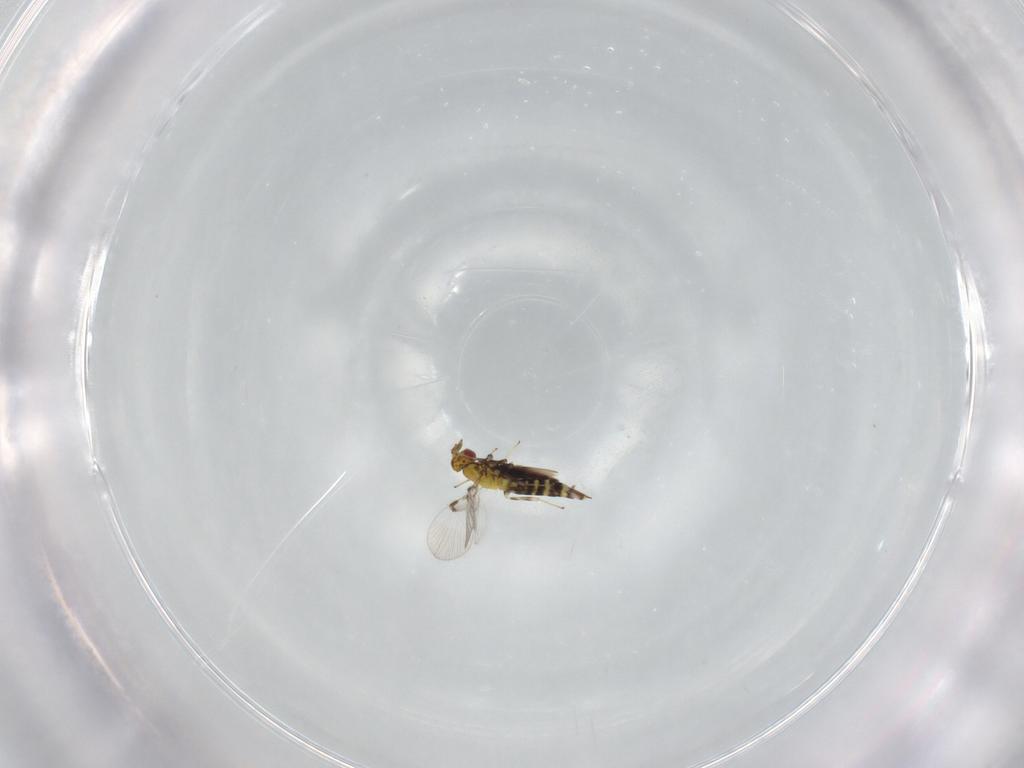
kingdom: Animalia
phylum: Arthropoda
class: Insecta
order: Hymenoptera
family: Trichogrammatidae
